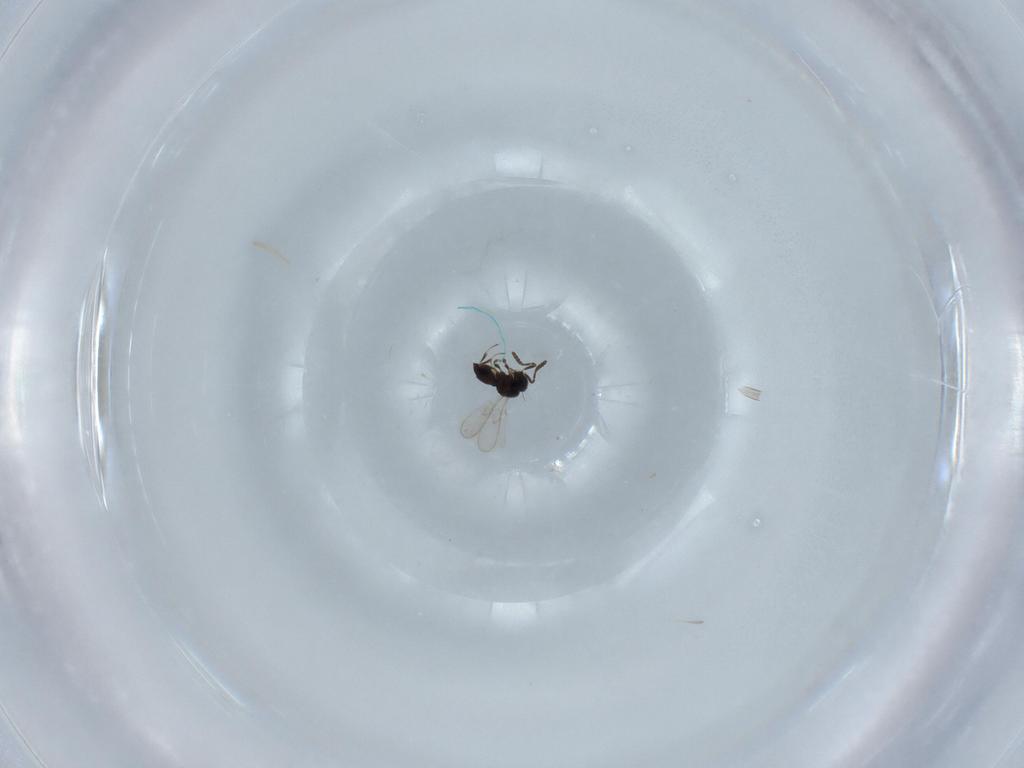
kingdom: Animalia
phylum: Arthropoda
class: Insecta
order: Hymenoptera
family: Scelionidae
